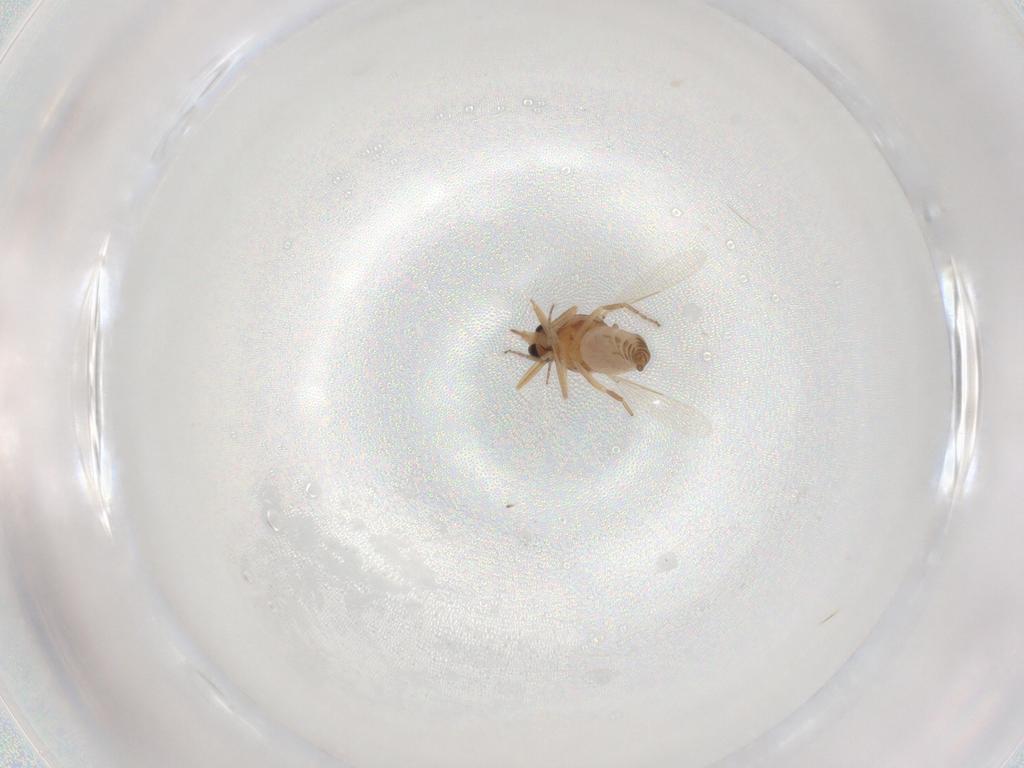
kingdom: Animalia
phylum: Arthropoda
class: Insecta
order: Diptera
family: Ceratopogonidae
